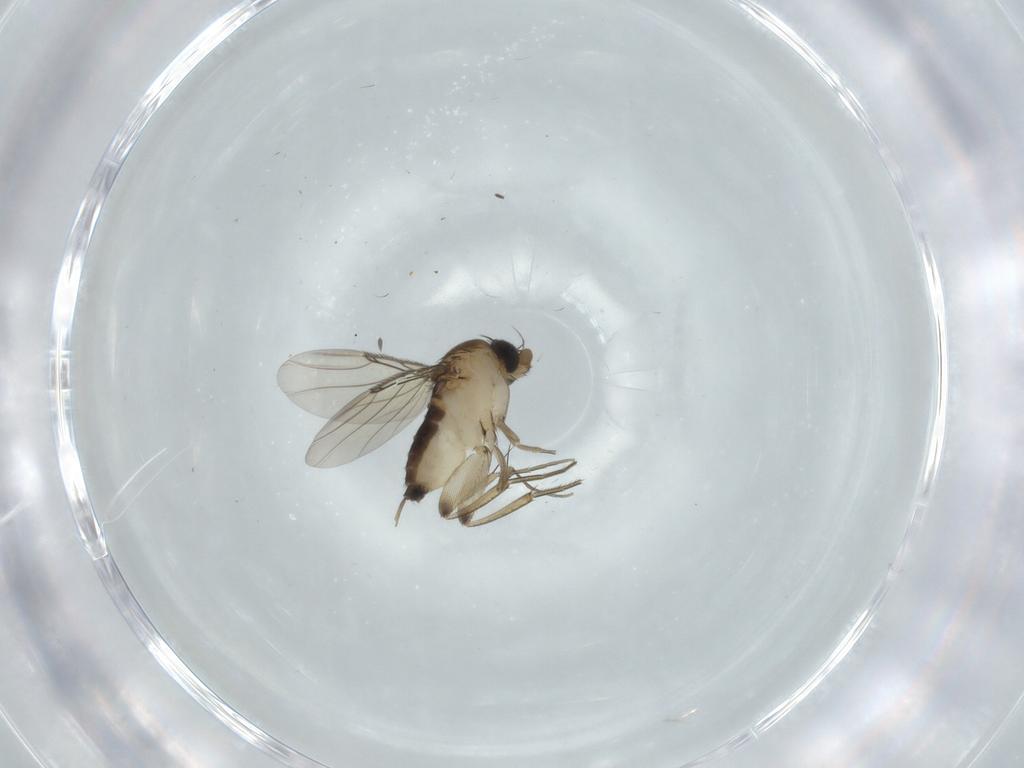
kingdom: Animalia
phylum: Arthropoda
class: Insecta
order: Diptera
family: Phoridae
